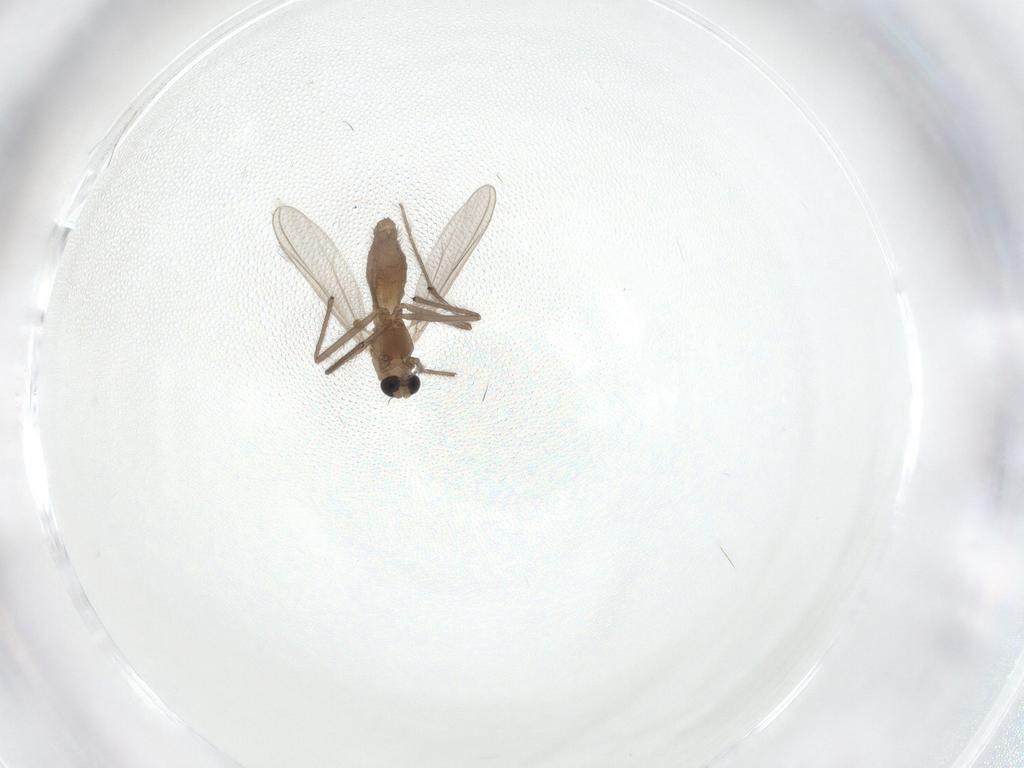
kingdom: Animalia
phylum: Arthropoda
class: Insecta
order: Diptera
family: Chironomidae
